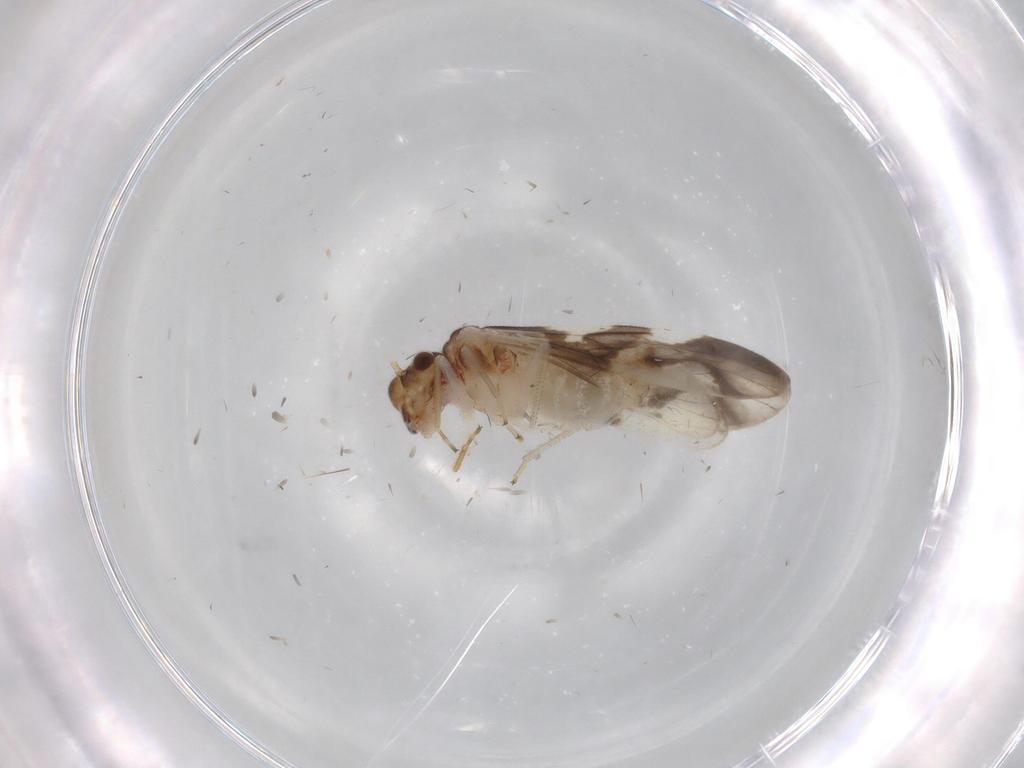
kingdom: Animalia
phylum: Arthropoda
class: Insecta
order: Psocodea
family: Caeciliusidae
